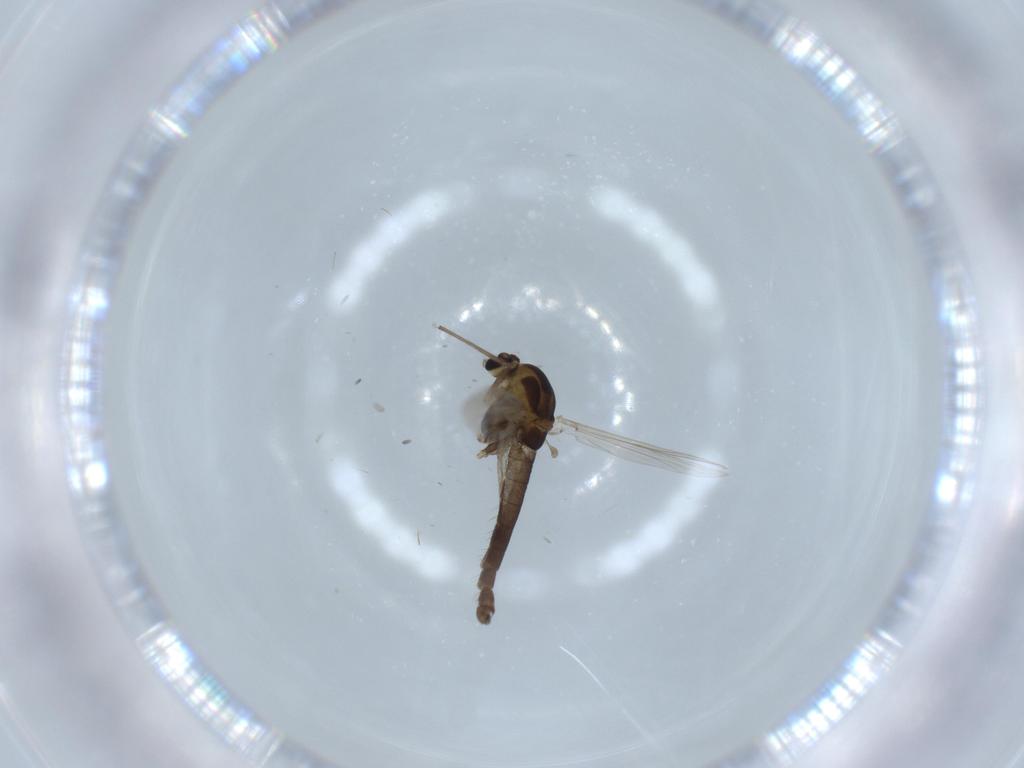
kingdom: Animalia
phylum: Arthropoda
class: Insecta
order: Diptera
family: Chironomidae
